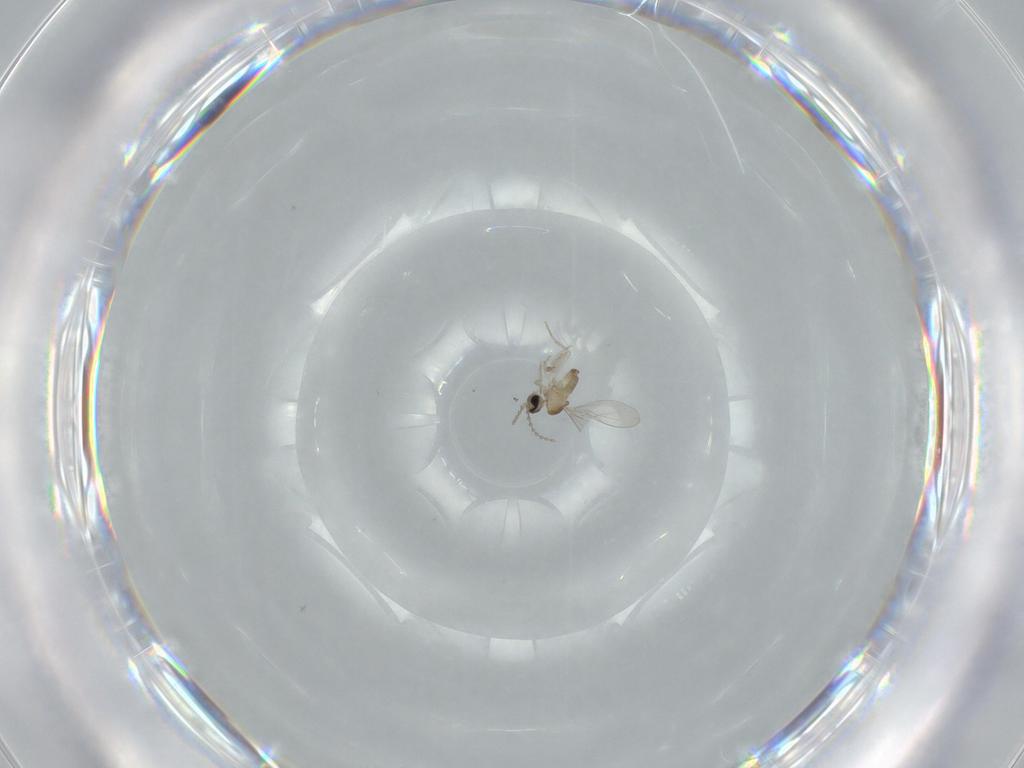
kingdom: Animalia
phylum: Arthropoda
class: Insecta
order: Diptera
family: Cecidomyiidae
